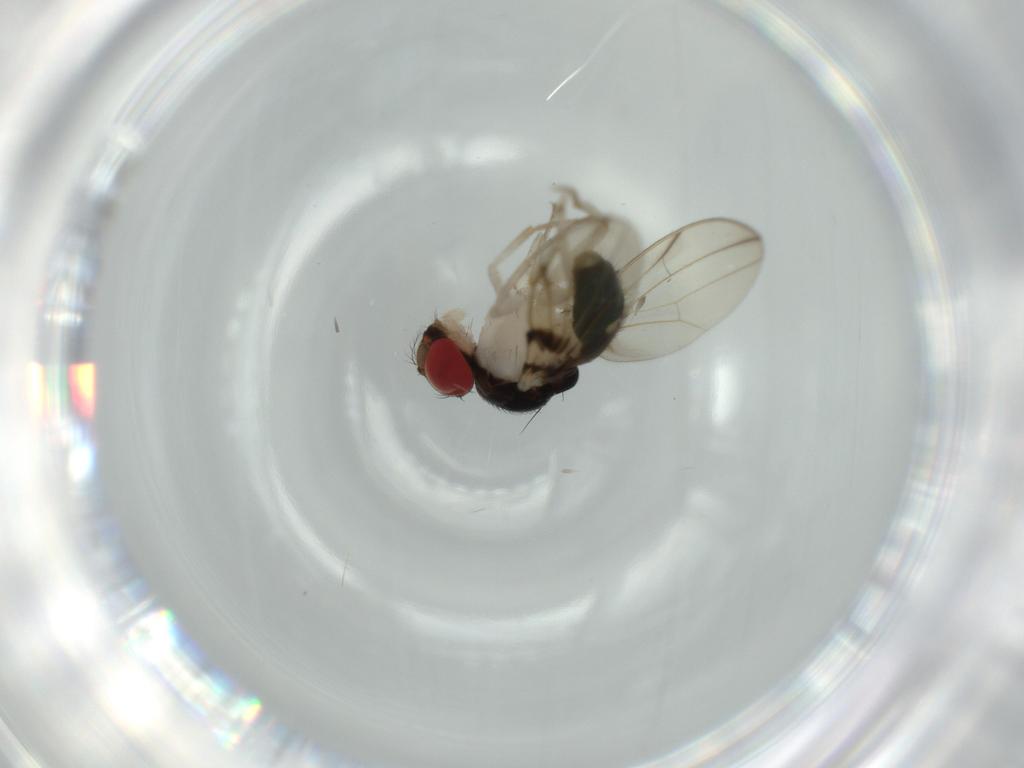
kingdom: Animalia
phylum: Arthropoda
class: Insecta
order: Diptera
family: Drosophilidae
